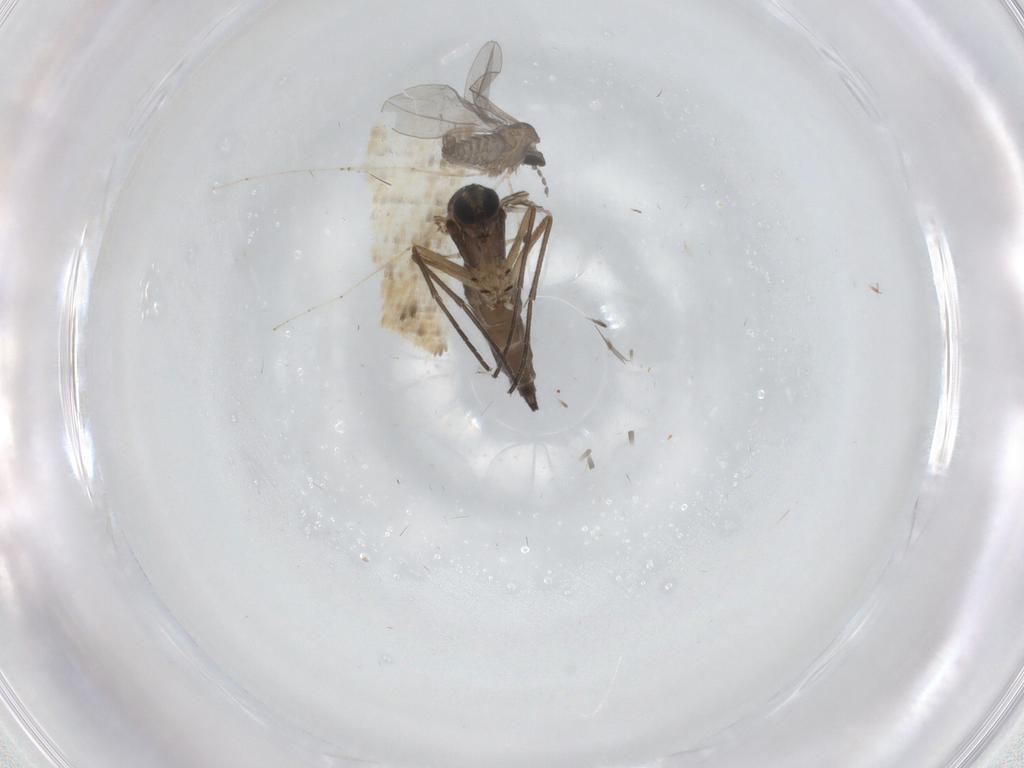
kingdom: Animalia
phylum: Arthropoda
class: Insecta
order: Diptera
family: Cecidomyiidae
